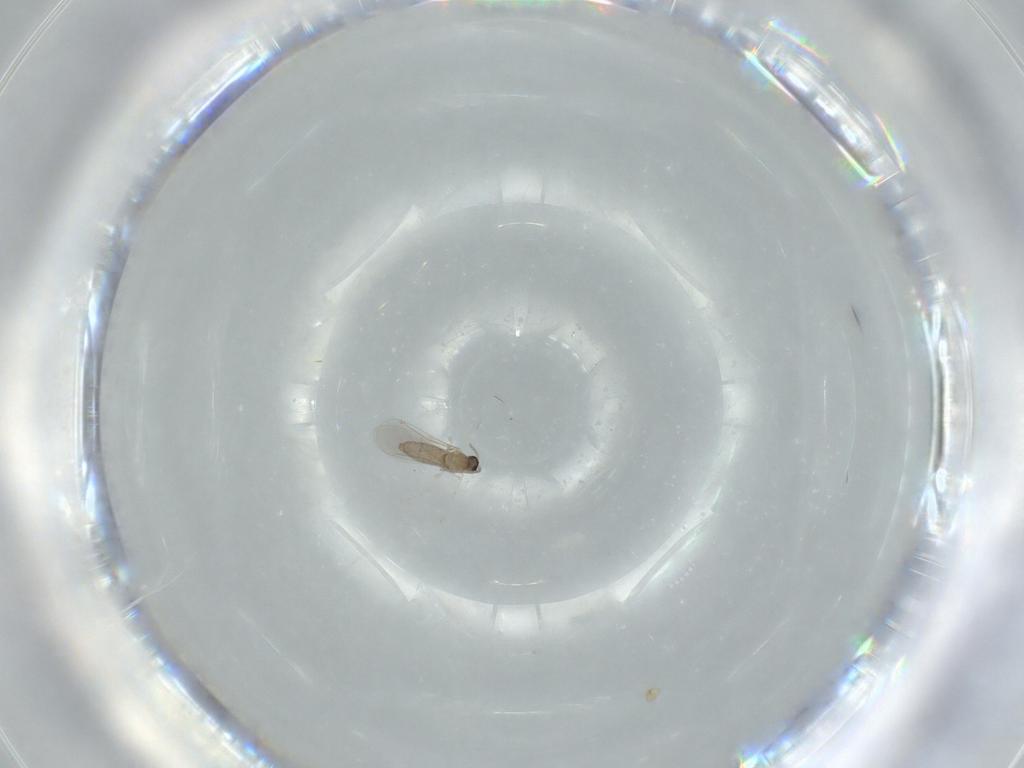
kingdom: Animalia
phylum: Arthropoda
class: Insecta
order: Diptera
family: Cecidomyiidae
